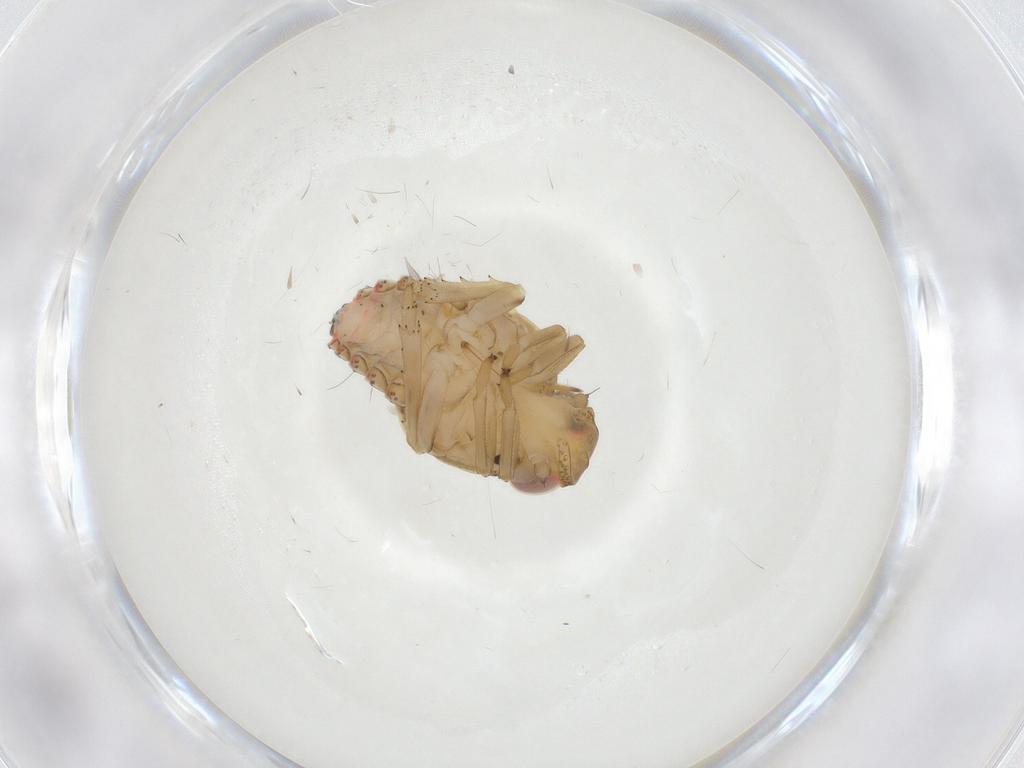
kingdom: Animalia
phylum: Arthropoda
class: Insecta
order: Hemiptera
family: Issidae
